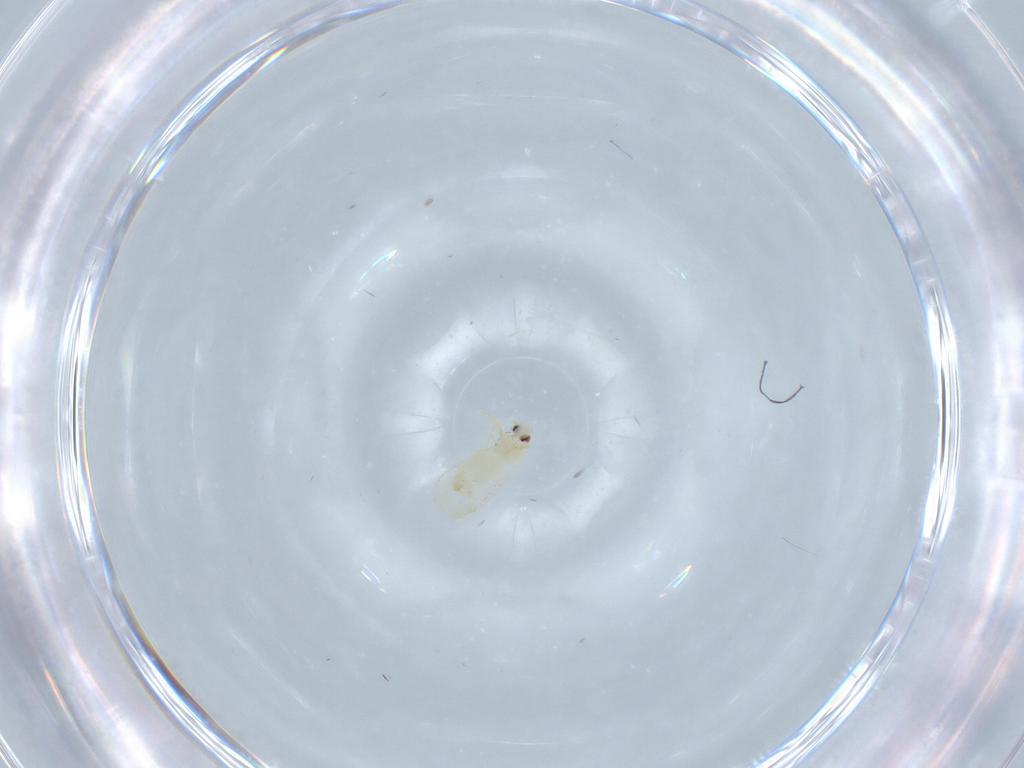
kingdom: Animalia
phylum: Arthropoda
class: Insecta
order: Hemiptera
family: Aleyrodidae
